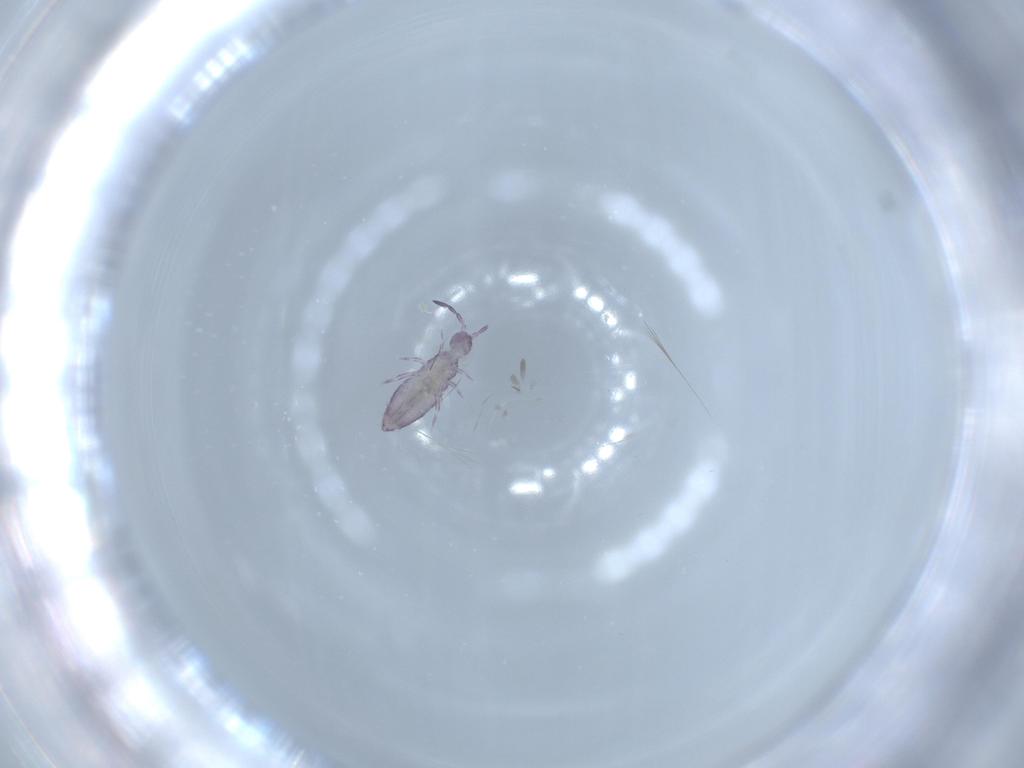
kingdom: Animalia
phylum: Arthropoda
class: Collembola
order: Entomobryomorpha
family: Entomobryidae
